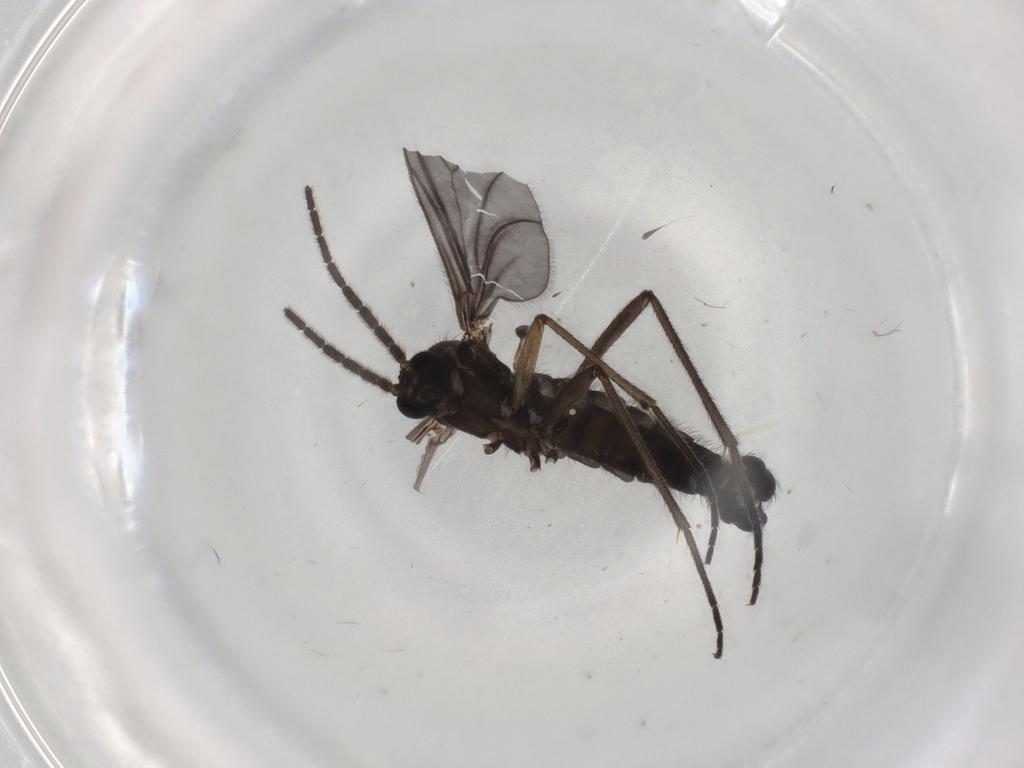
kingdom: Animalia
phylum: Arthropoda
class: Insecta
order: Diptera
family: Sciaridae
